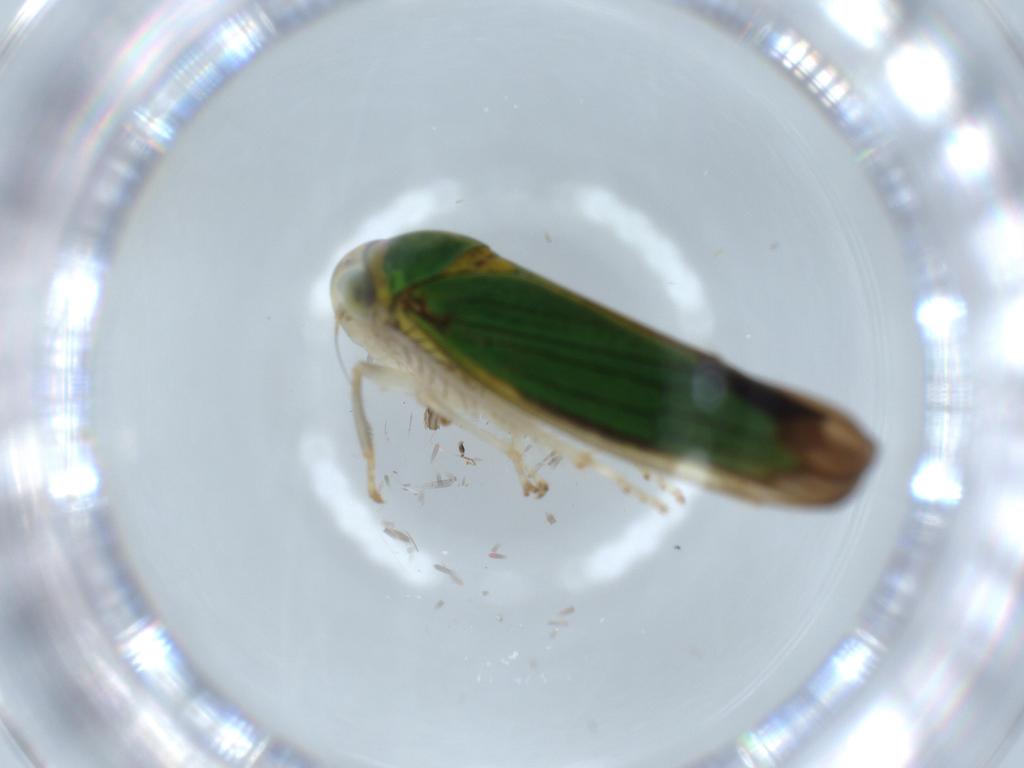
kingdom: Animalia
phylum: Arthropoda
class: Insecta
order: Hemiptera
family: Cicadellidae
